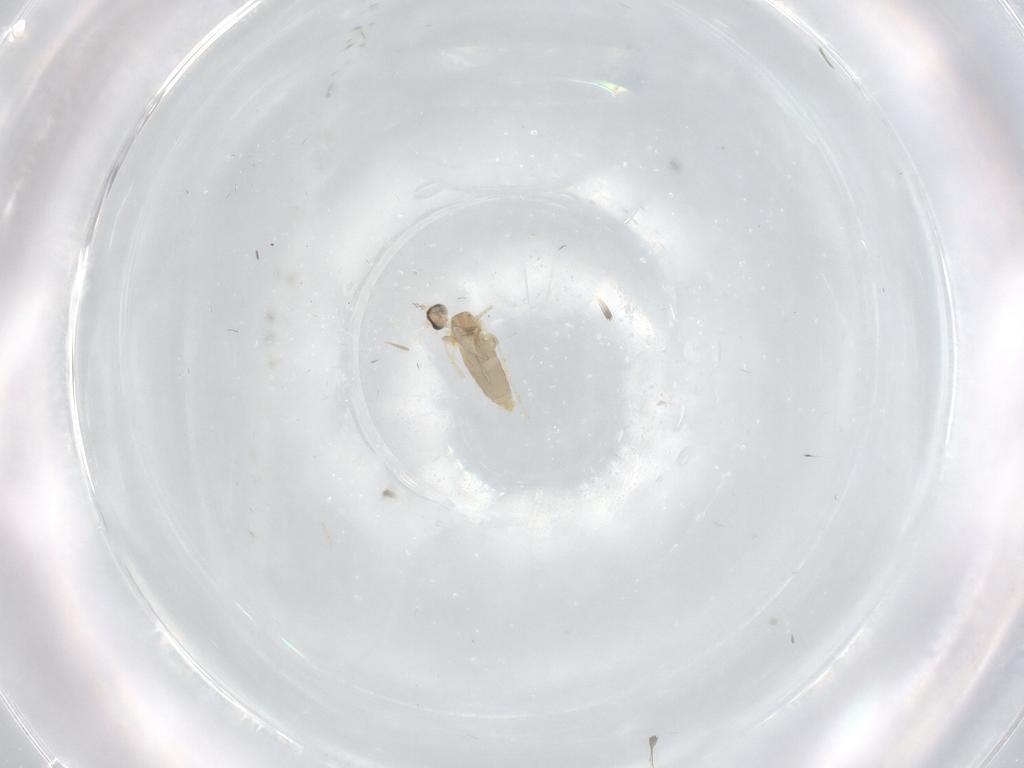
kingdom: Animalia
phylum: Arthropoda
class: Insecta
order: Diptera
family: Cecidomyiidae
